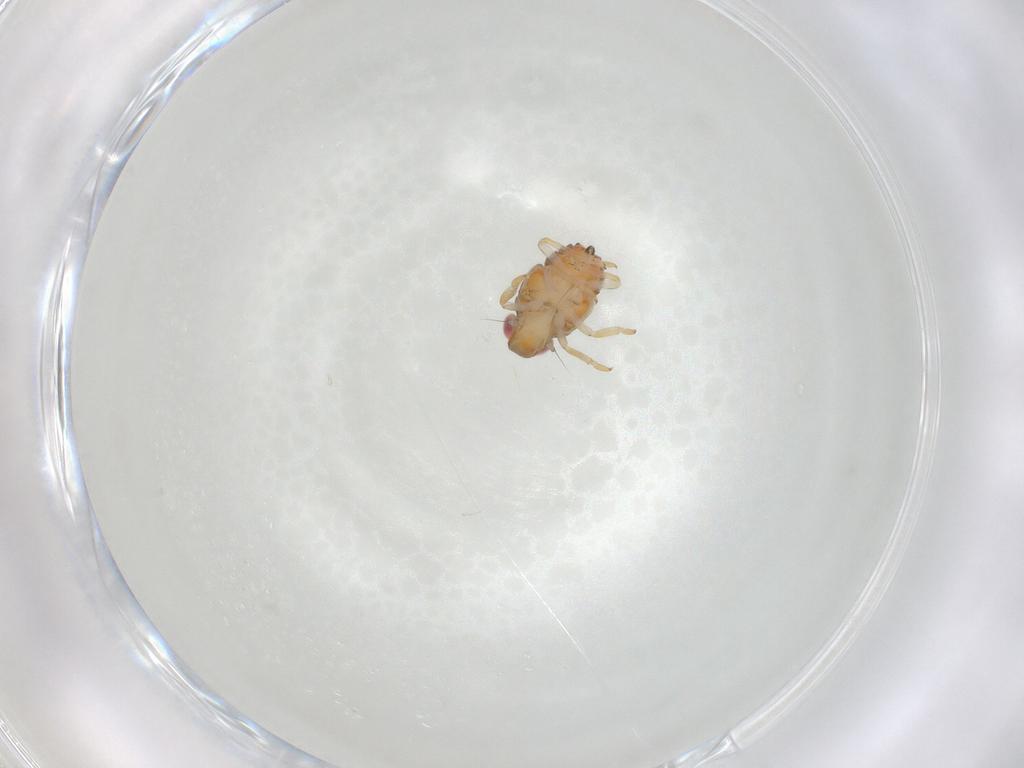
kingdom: Animalia
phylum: Arthropoda
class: Insecta
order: Hemiptera
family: Issidae
